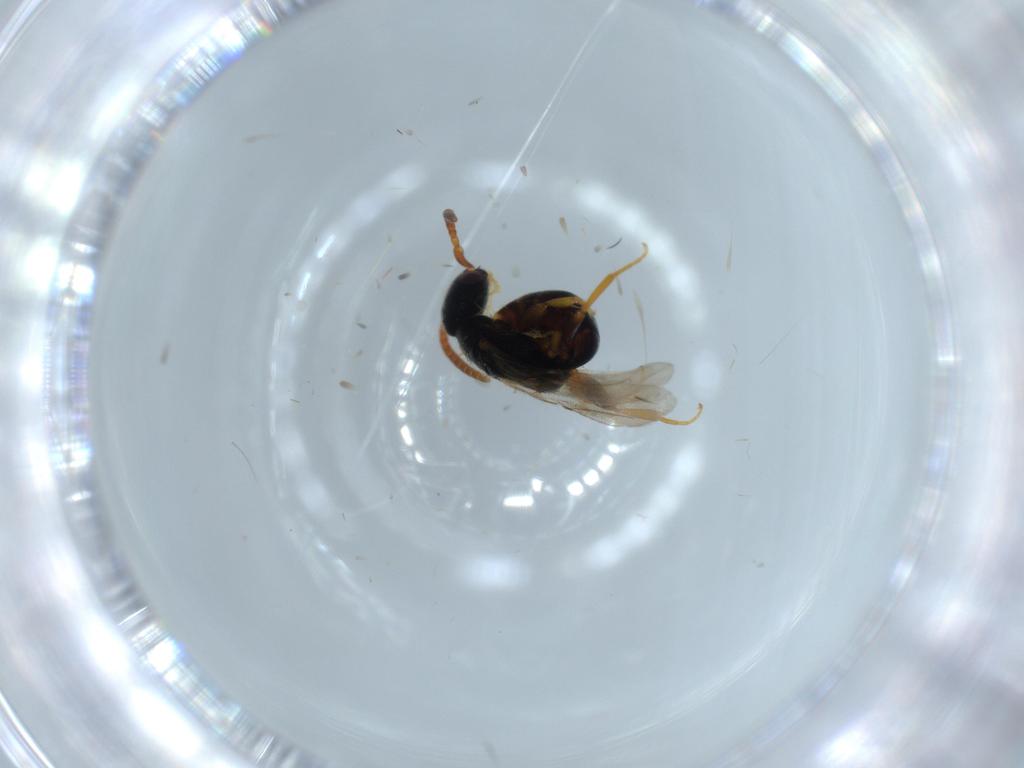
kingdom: Animalia
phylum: Arthropoda
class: Insecta
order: Hymenoptera
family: Bethylidae
